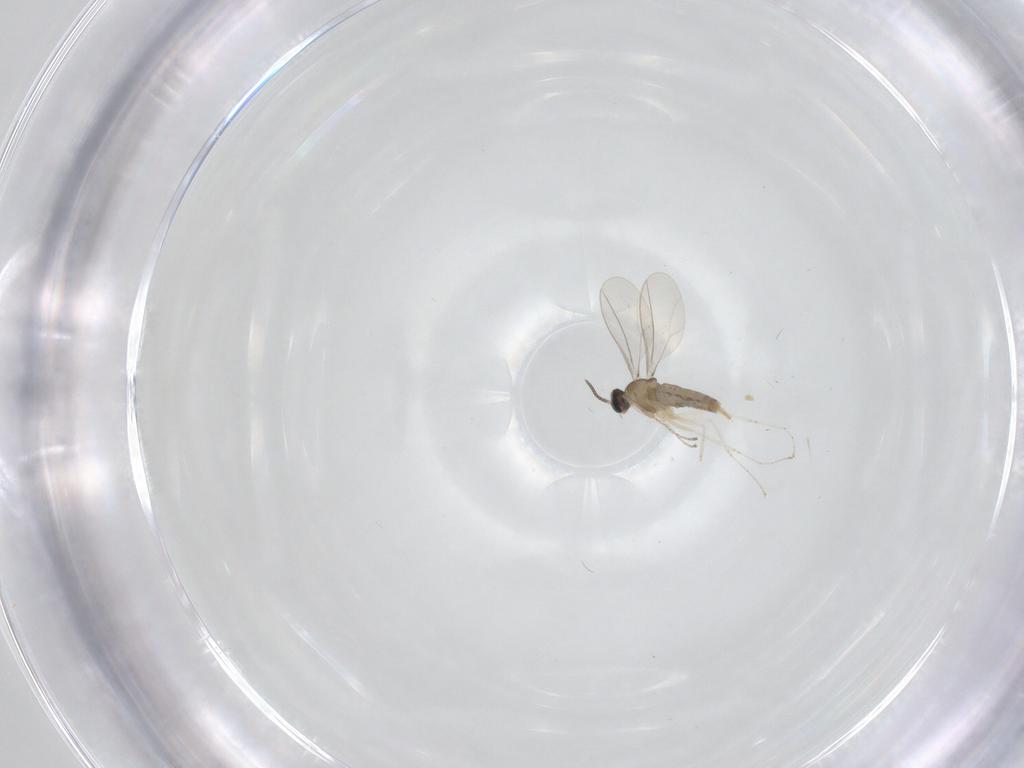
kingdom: Animalia
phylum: Arthropoda
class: Insecta
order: Diptera
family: Cecidomyiidae
